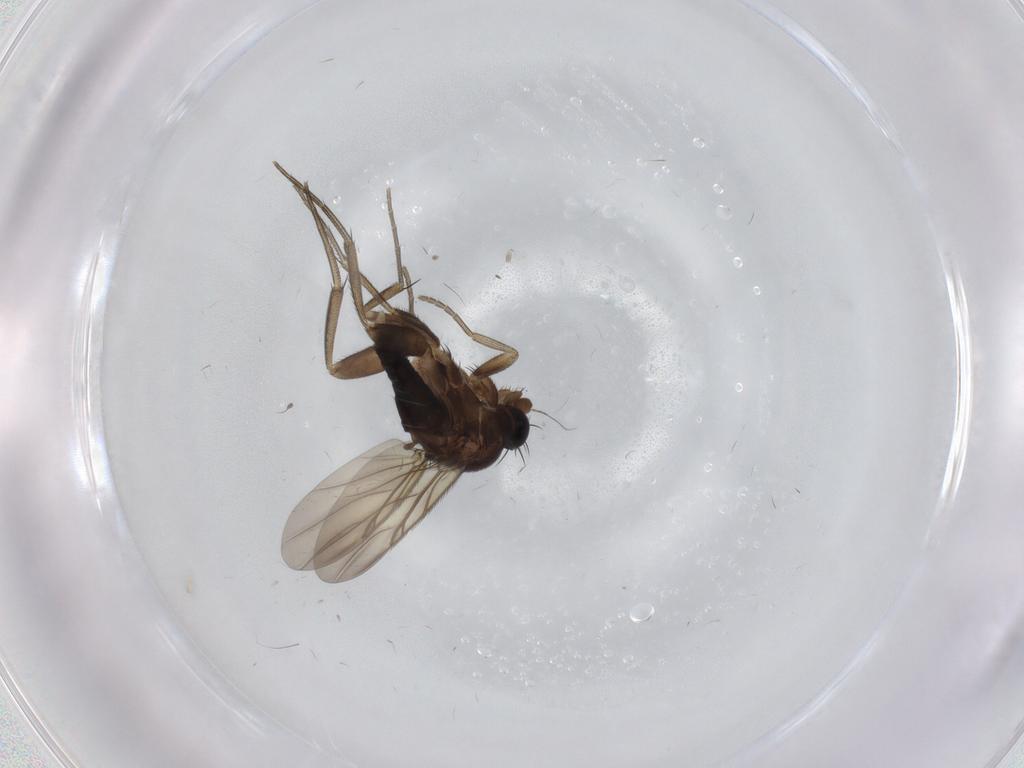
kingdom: Animalia
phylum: Arthropoda
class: Insecta
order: Diptera
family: Phoridae
